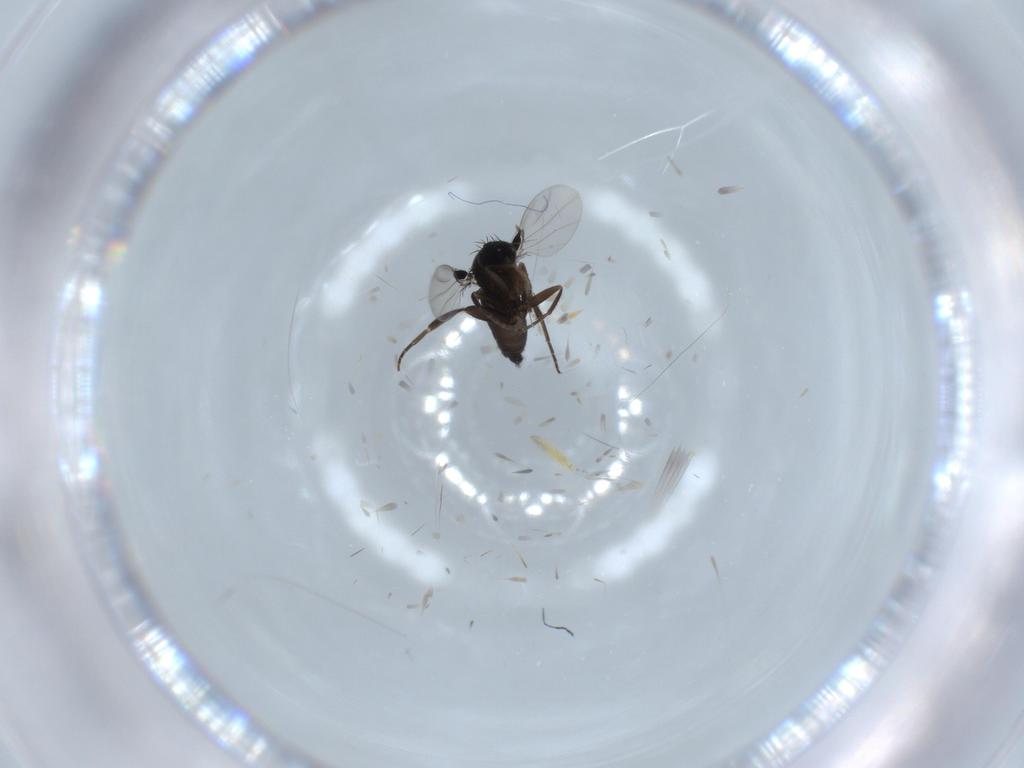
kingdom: Animalia
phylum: Arthropoda
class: Insecta
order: Diptera
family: Phoridae
